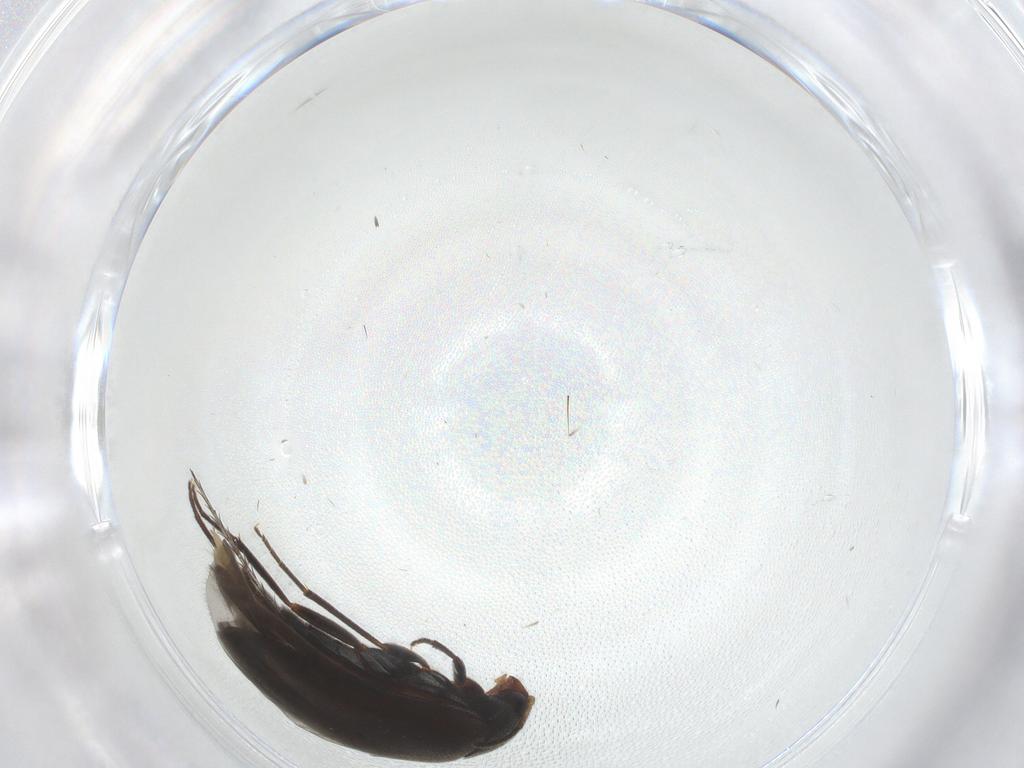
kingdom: Animalia
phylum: Arthropoda
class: Insecta
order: Coleoptera
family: Melandryidae
